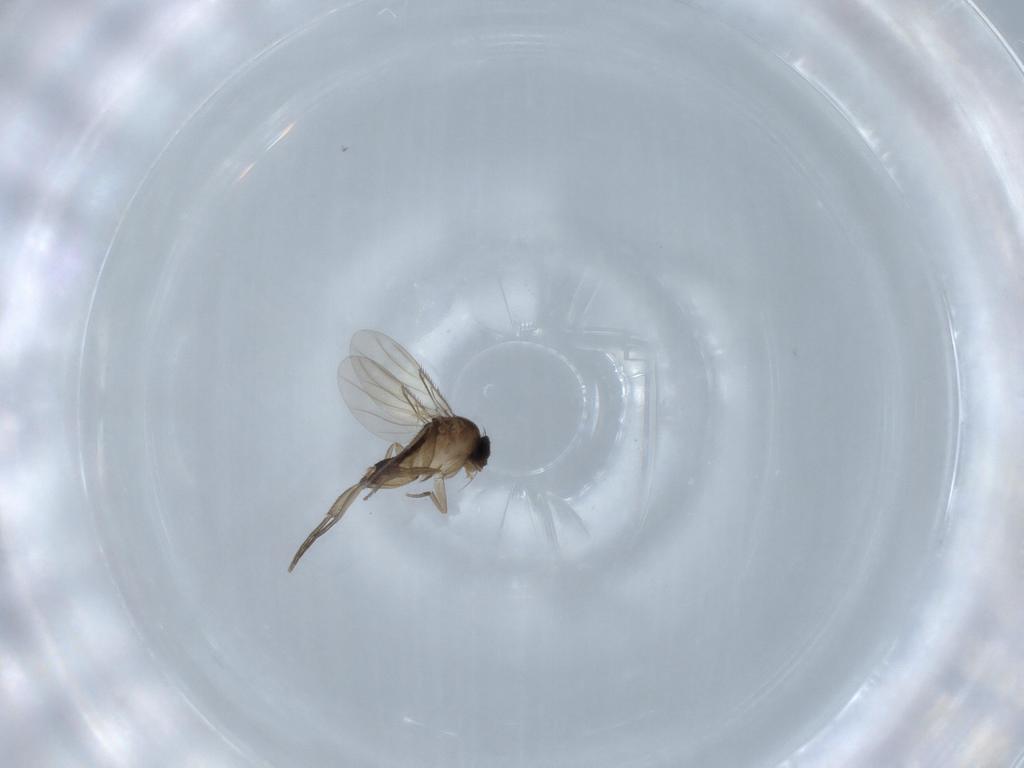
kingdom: Animalia
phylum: Arthropoda
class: Insecta
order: Diptera
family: Phoridae
